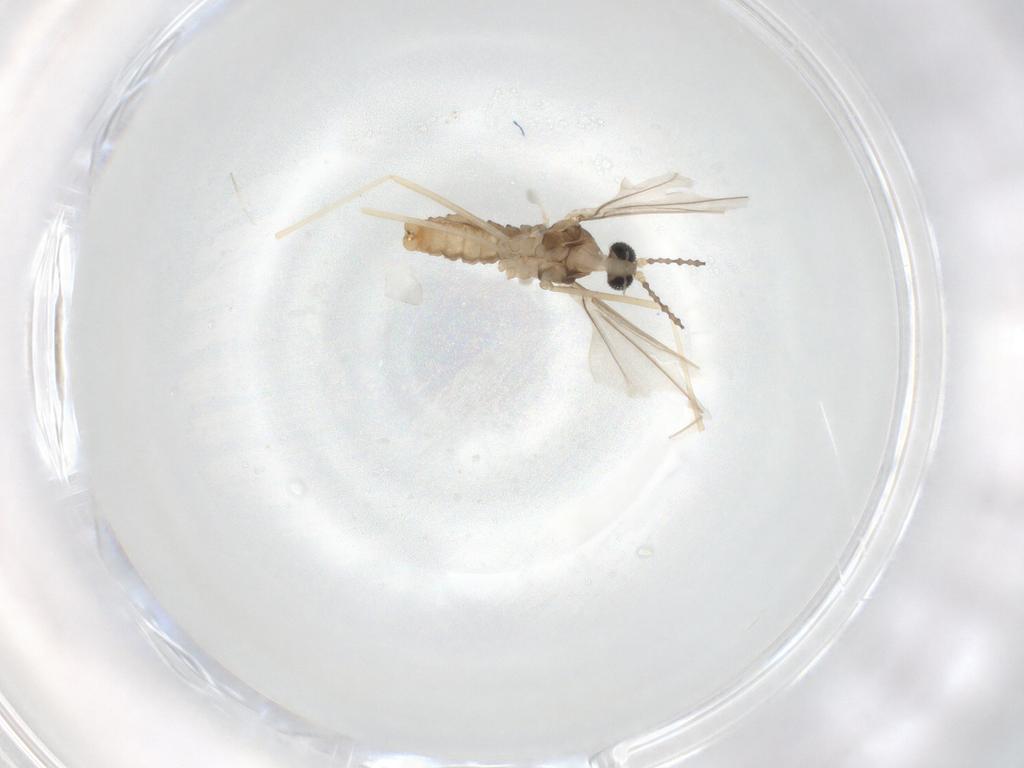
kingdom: Animalia
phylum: Arthropoda
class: Insecta
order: Diptera
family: Cecidomyiidae
